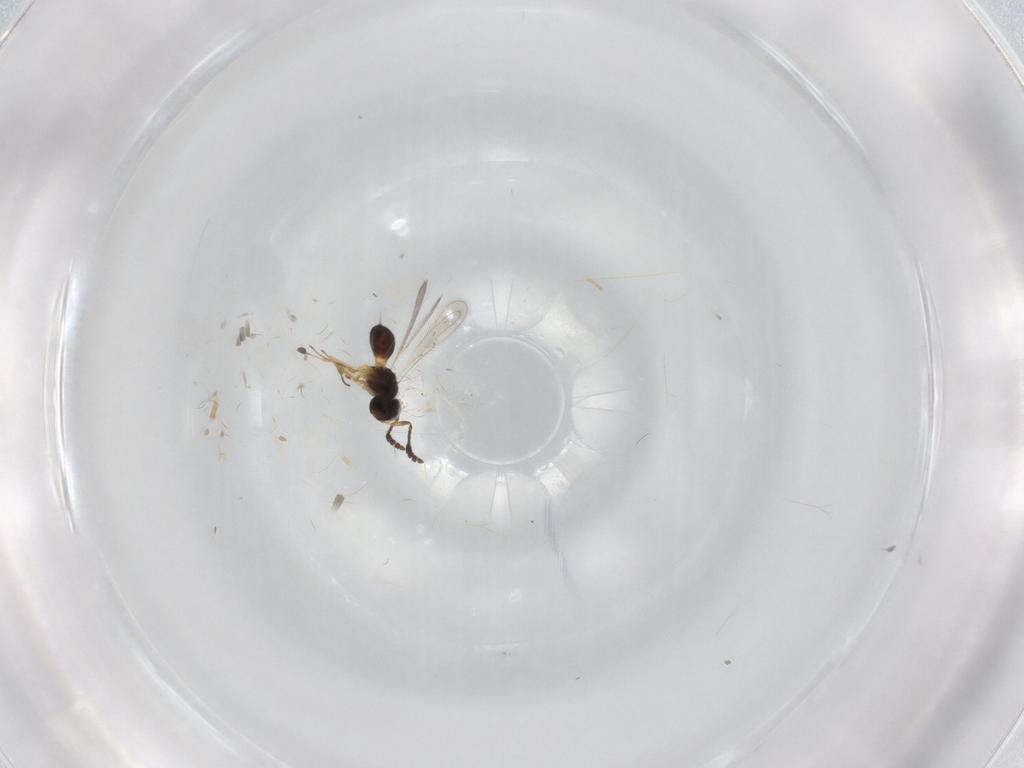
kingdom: Animalia
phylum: Arthropoda
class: Insecta
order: Hymenoptera
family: Scelionidae
